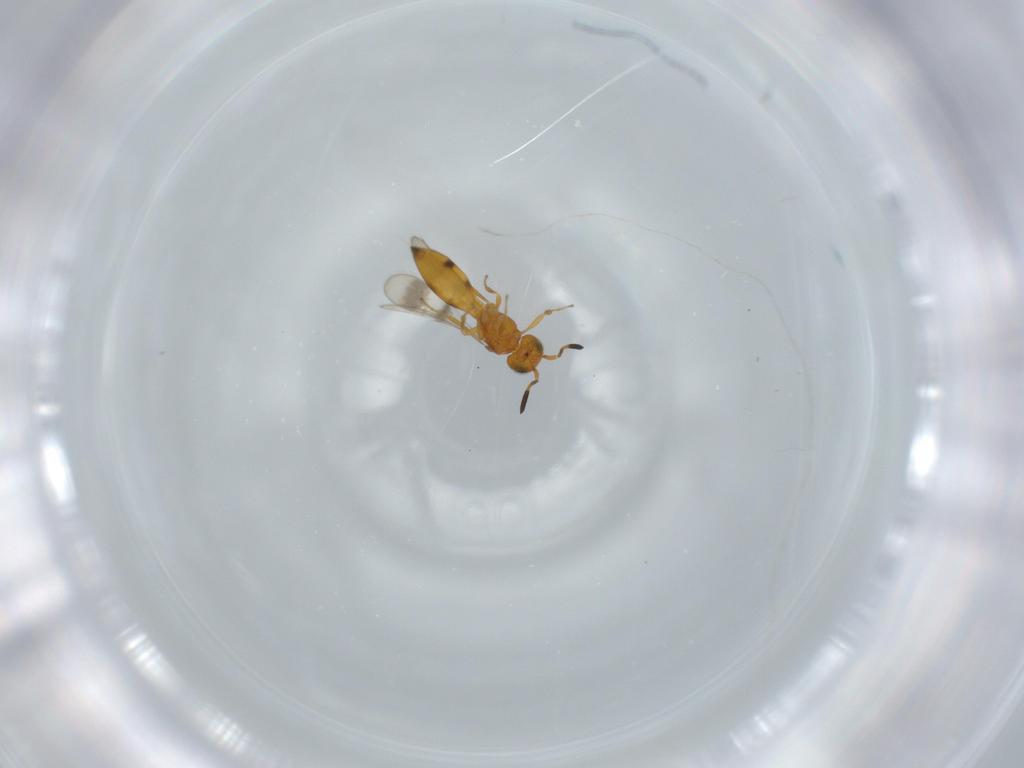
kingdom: Animalia
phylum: Arthropoda
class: Insecta
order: Hymenoptera
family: Scelionidae
